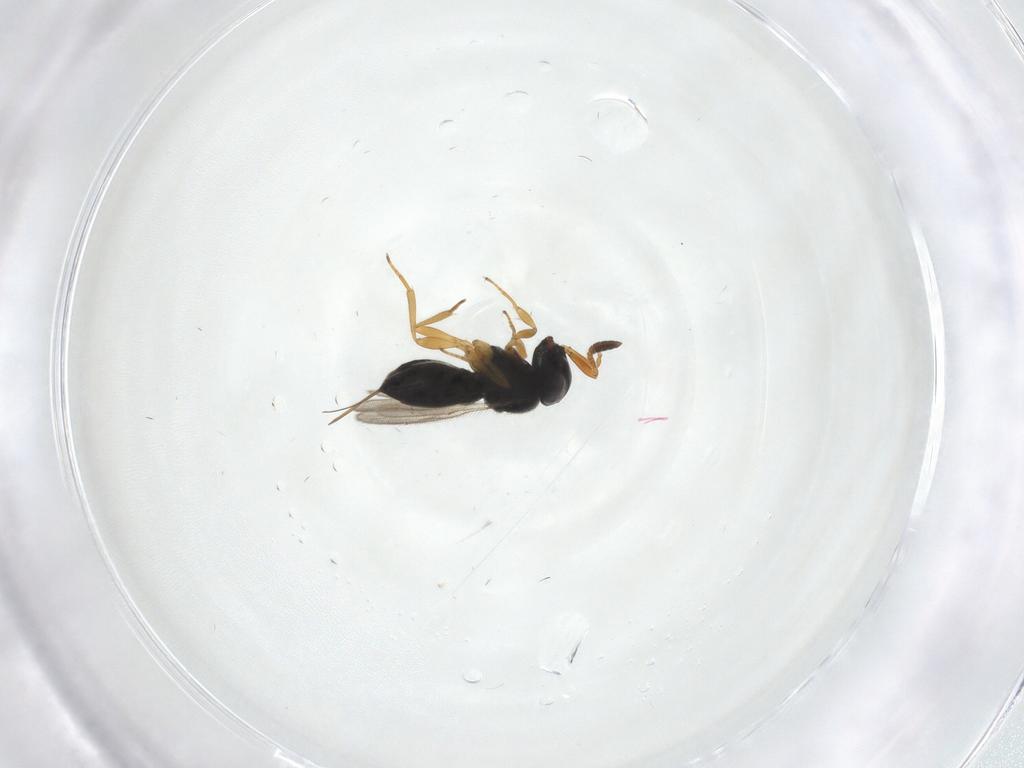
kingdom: Animalia
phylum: Arthropoda
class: Insecta
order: Hymenoptera
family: Scelionidae
